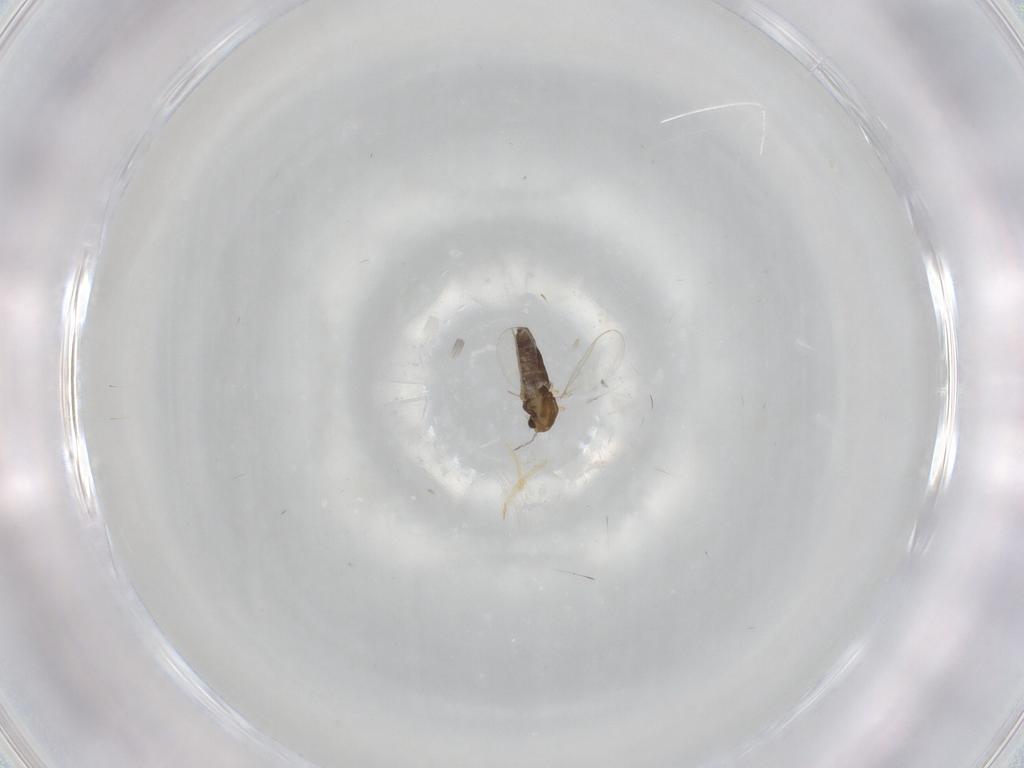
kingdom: Animalia
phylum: Arthropoda
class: Insecta
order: Diptera
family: Chironomidae
